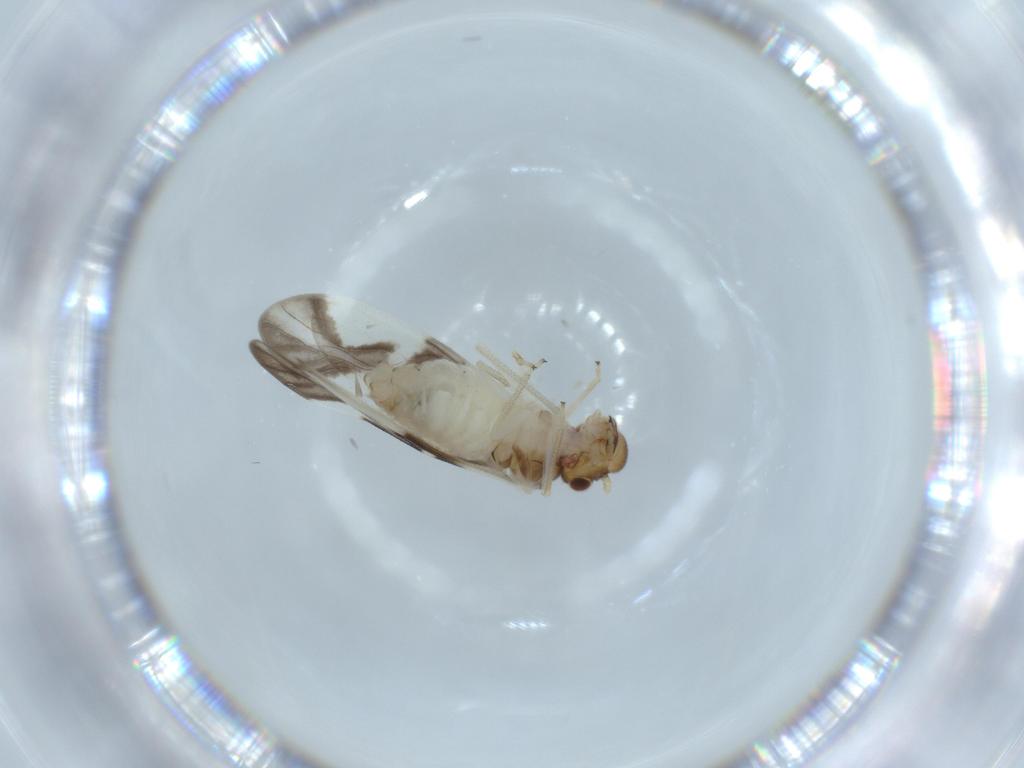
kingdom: Animalia
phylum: Arthropoda
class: Insecta
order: Psocodea
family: Caeciliusidae
